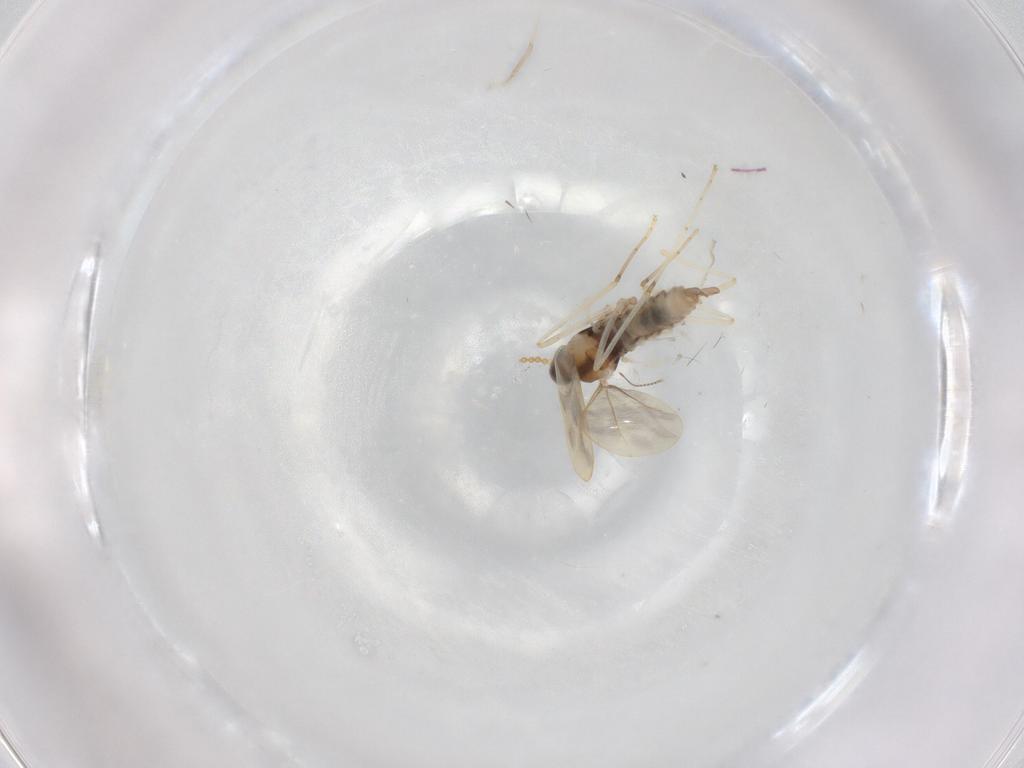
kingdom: Animalia
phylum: Arthropoda
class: Insecta
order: Diptera
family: Cecidomyiidae
